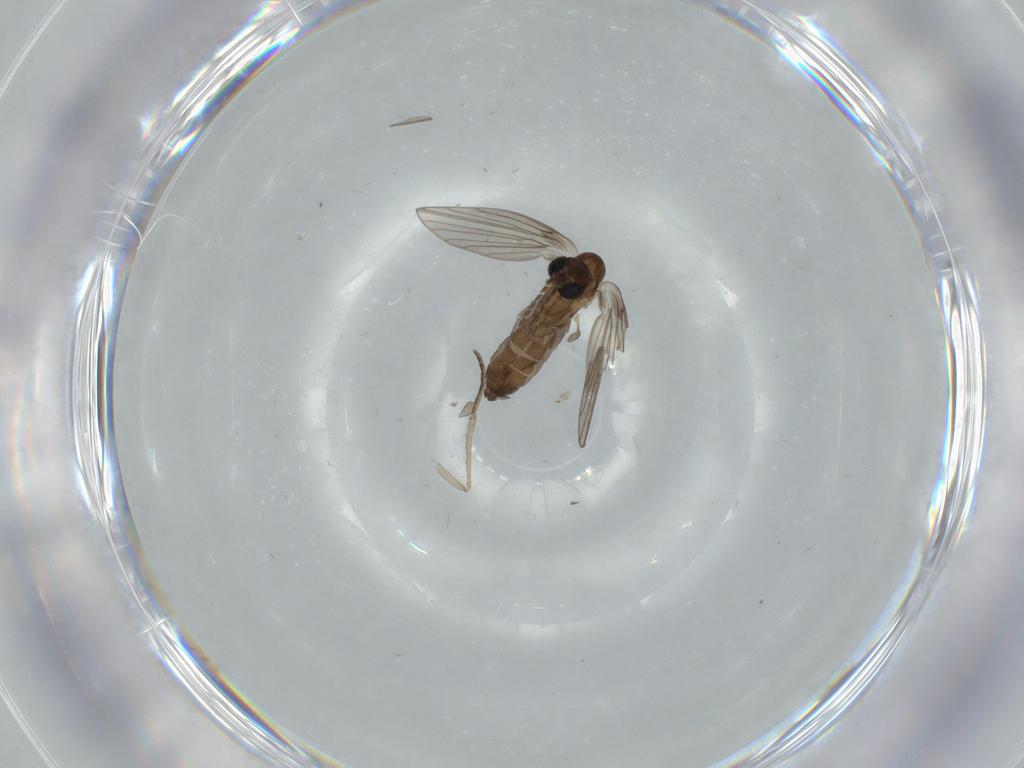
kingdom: Animalia
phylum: Arthropoda
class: Insecta
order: Diptera
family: Psychodidae
